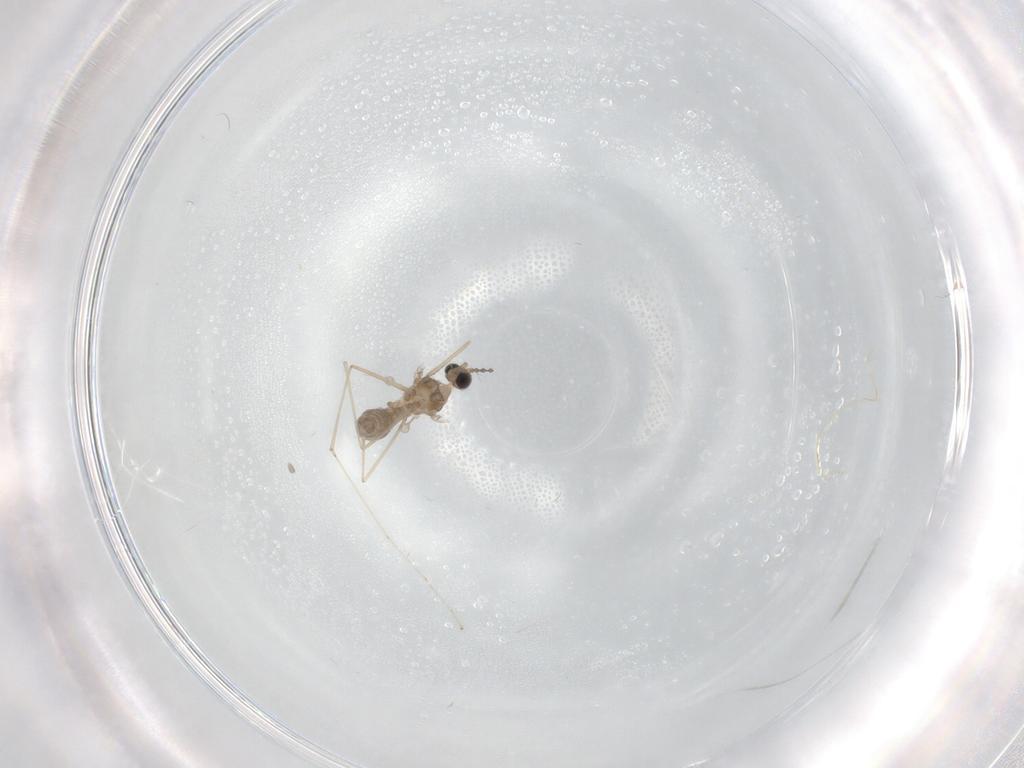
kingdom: Animalia
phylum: Arthropoda
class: Insecta
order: Diptera
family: Cecidomyiidae
